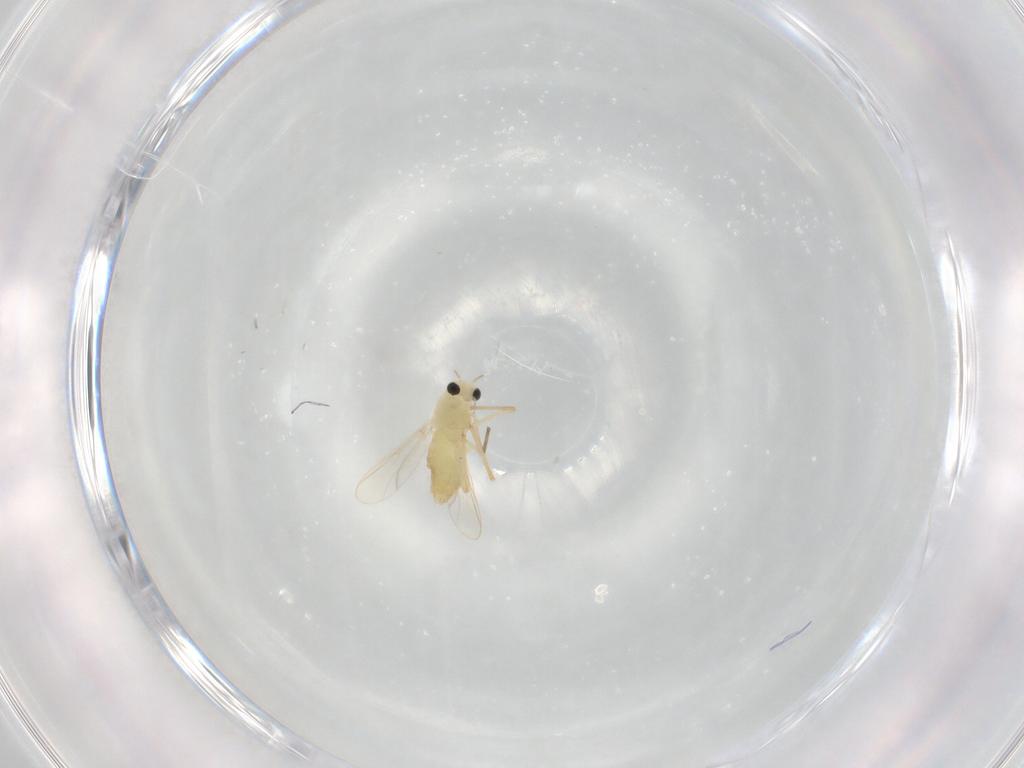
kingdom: Animalia
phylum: Arthropoda
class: Insecta
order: Diptera
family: Chironomidae
